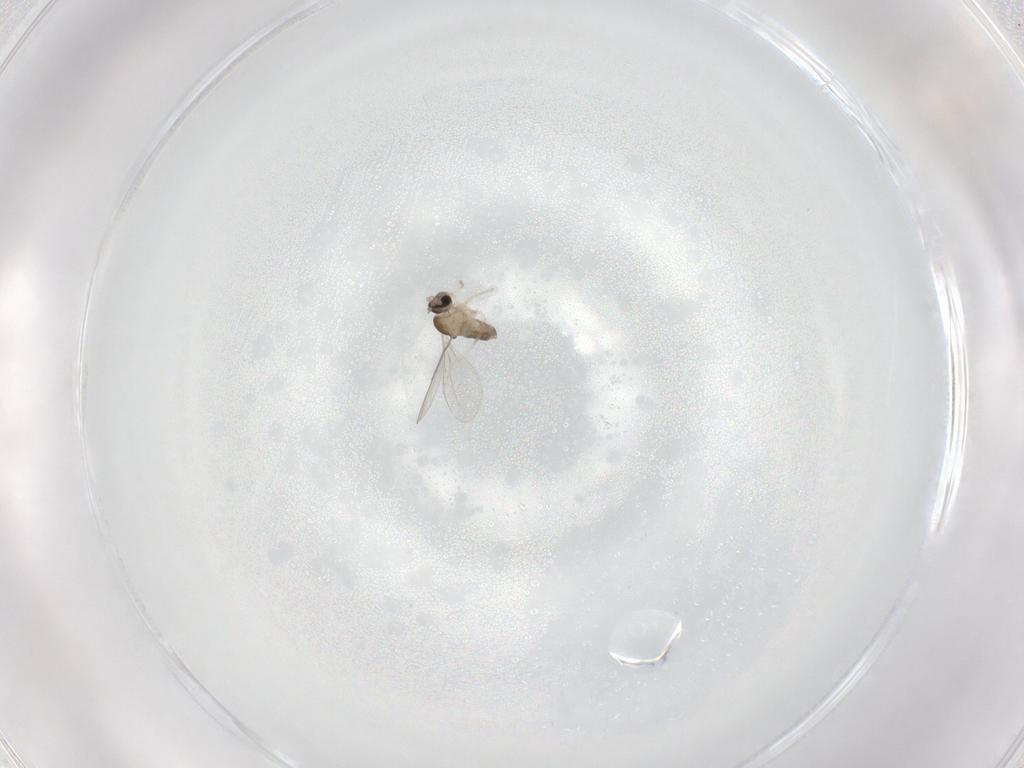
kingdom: Animalia
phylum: Arthropoda
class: Insecta
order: Diptera
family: Cecidomyiidae
